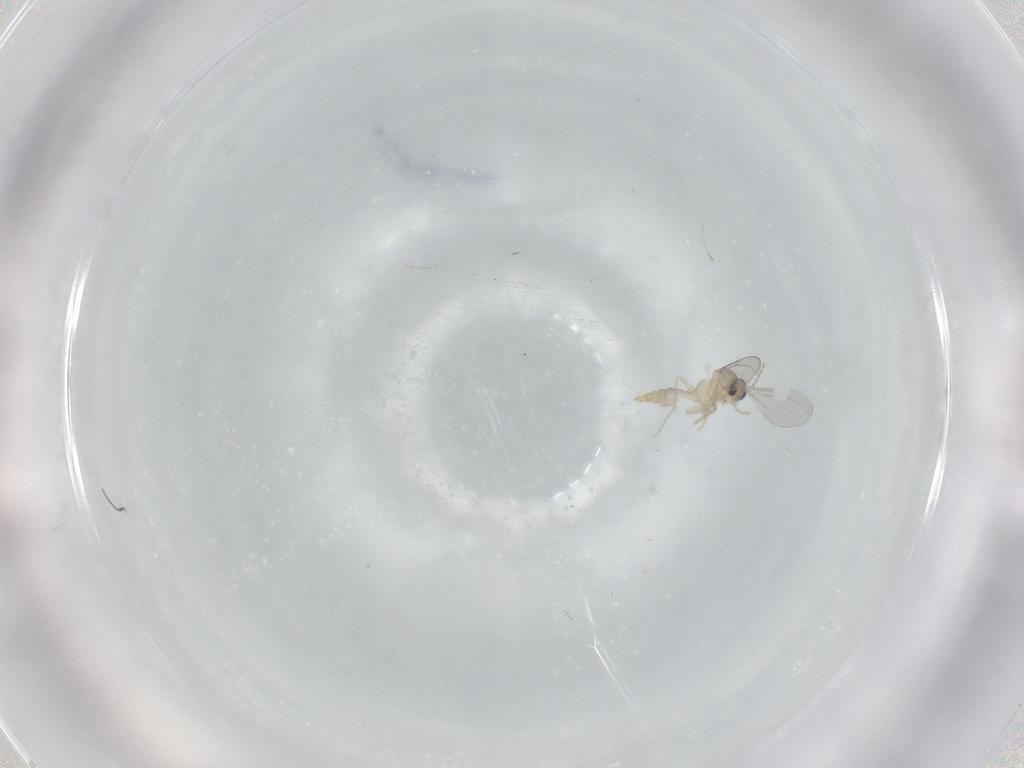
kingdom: Animalia
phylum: Arthropoda
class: Insecta
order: Diptera
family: Cecidomyiidae
